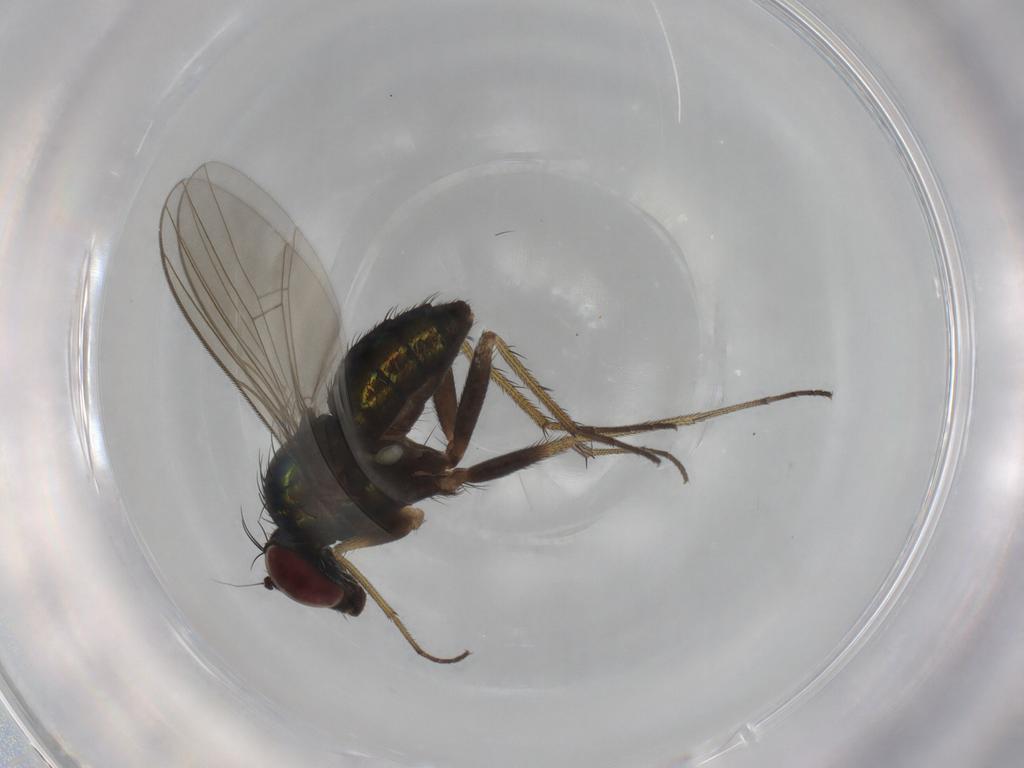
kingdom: Animalia
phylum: Arthropoda
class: Insecta
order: Diptera
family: Dolichopodidae
